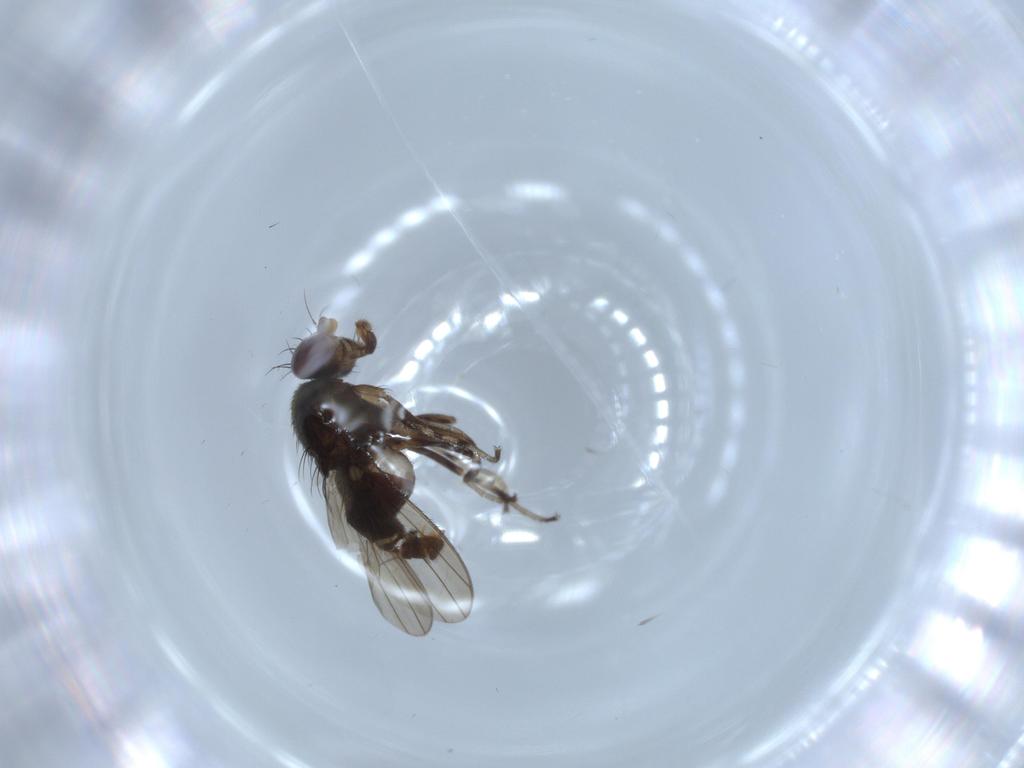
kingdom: Animalia
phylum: Arthropoda
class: Insecta
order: Diptera
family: Heleomyzidae
